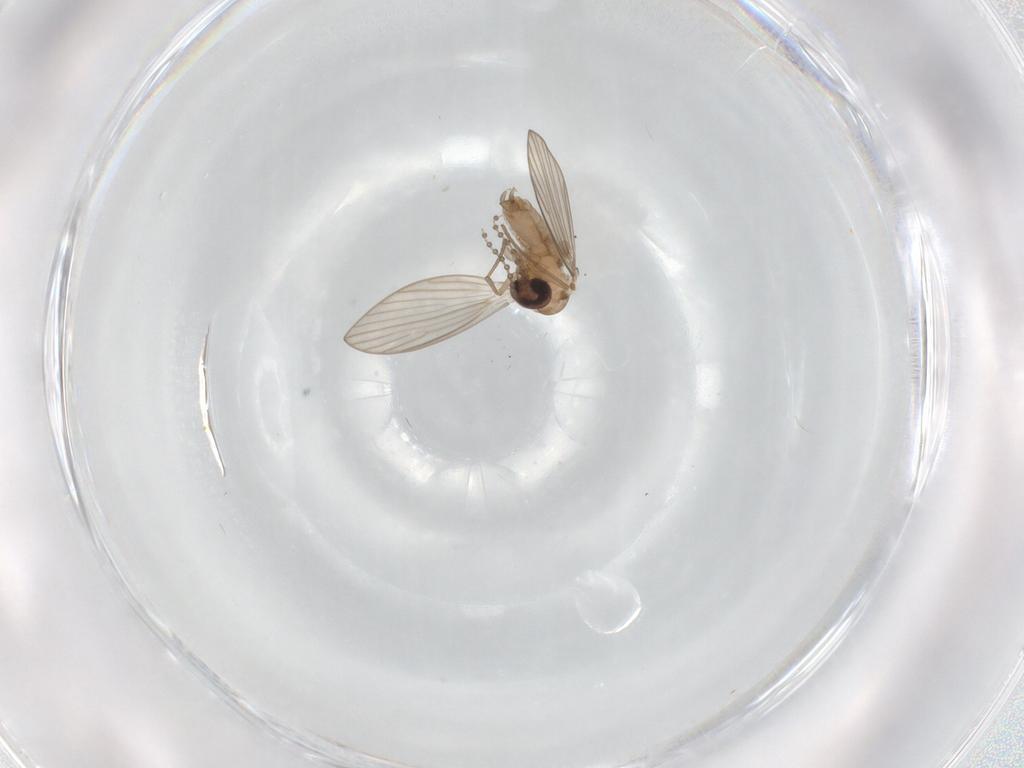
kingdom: Animalia
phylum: Arthropoda
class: Insecta
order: Diptera
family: Psychodidae
